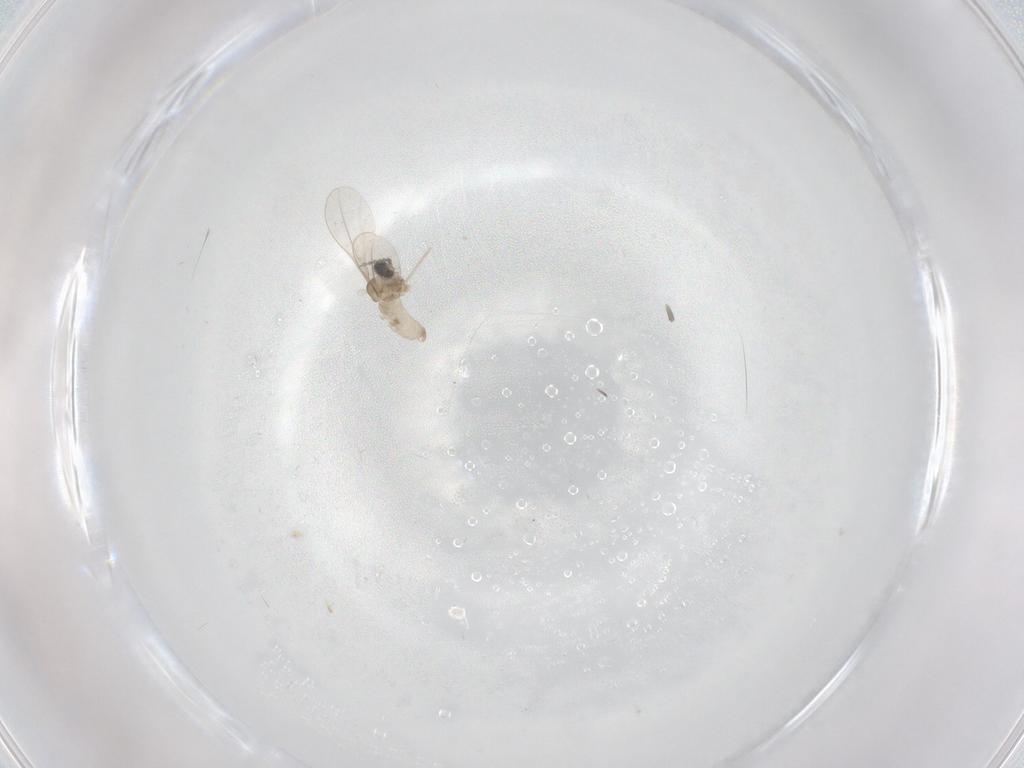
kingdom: Animalia
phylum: Arthropoda
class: Insecta
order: Diptera
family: Cecidomyiidae
